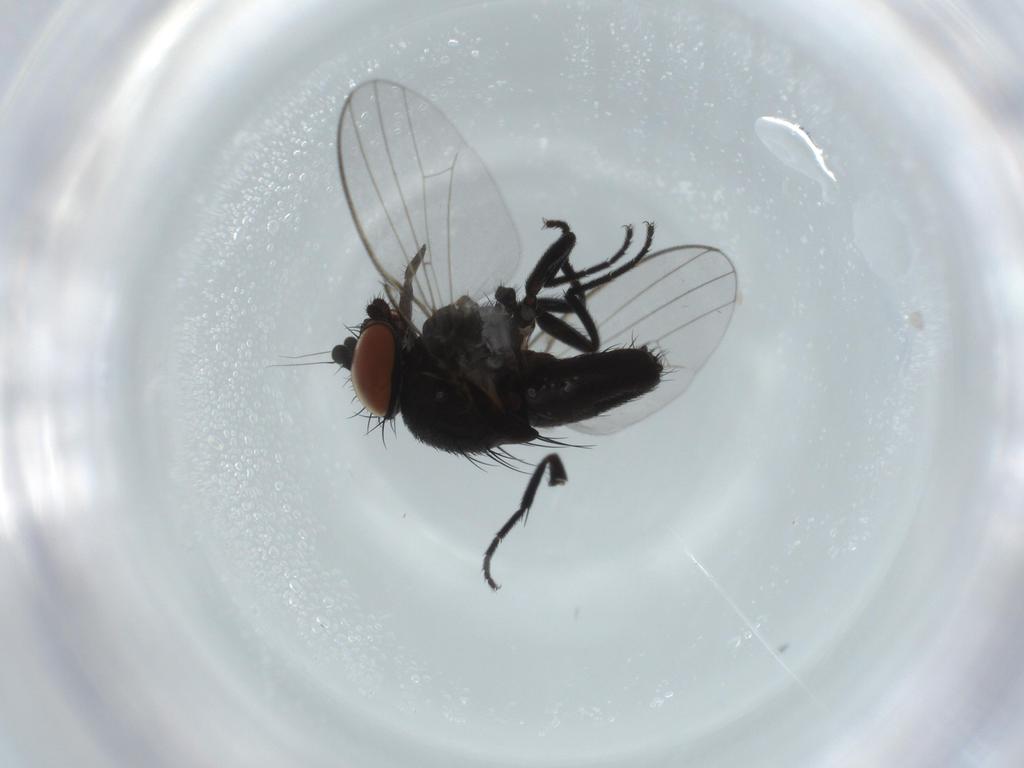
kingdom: Animalia
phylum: Arthropoda
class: Insecta
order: Diptera
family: Milichiidae
